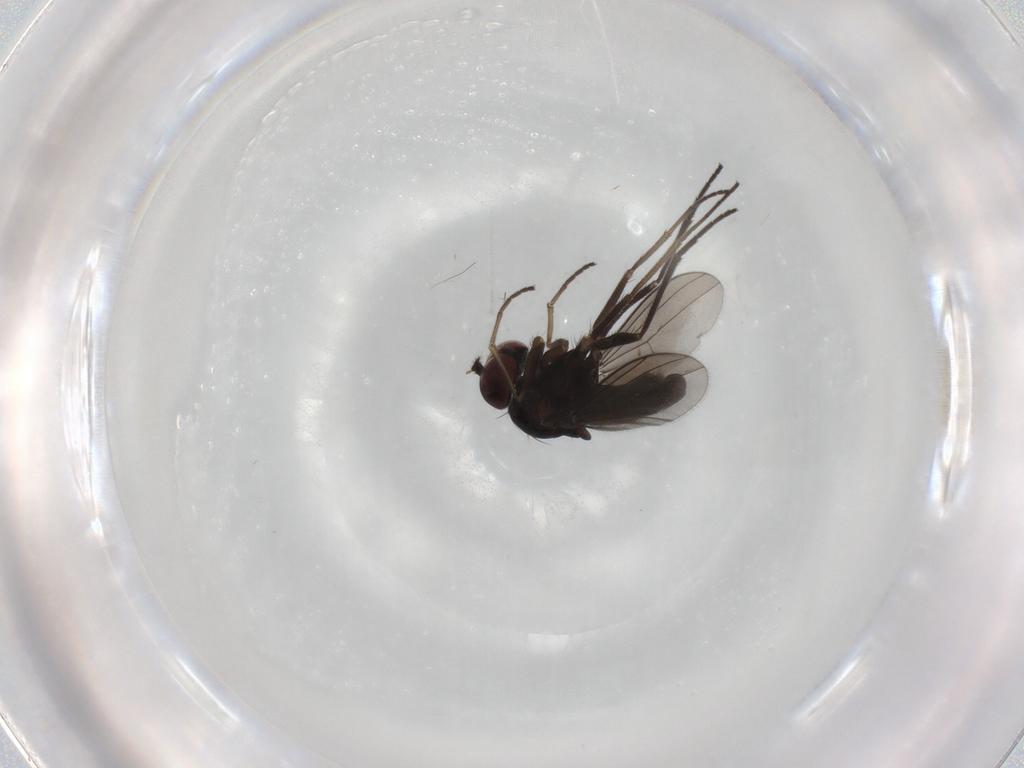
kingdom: Animalia
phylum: Arthropoda
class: Insecta
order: Diptera
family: Dolichopodidae
